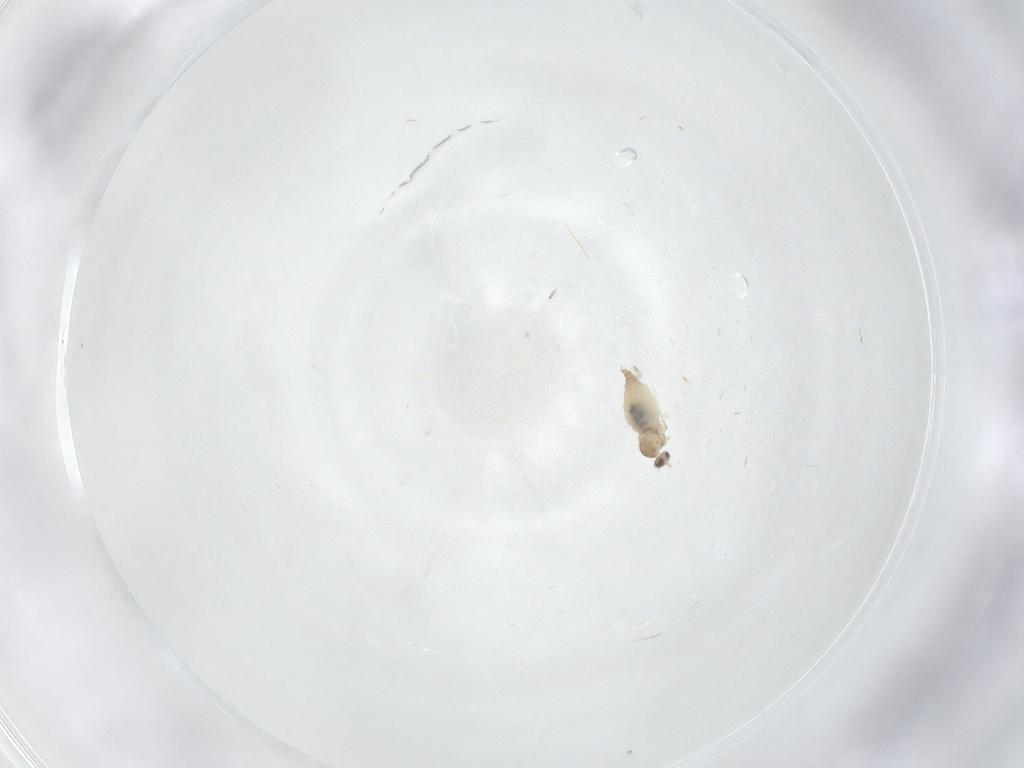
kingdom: Animalia
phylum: Arthropoda
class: Insecta
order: Diptera
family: Cecidomyiidae
